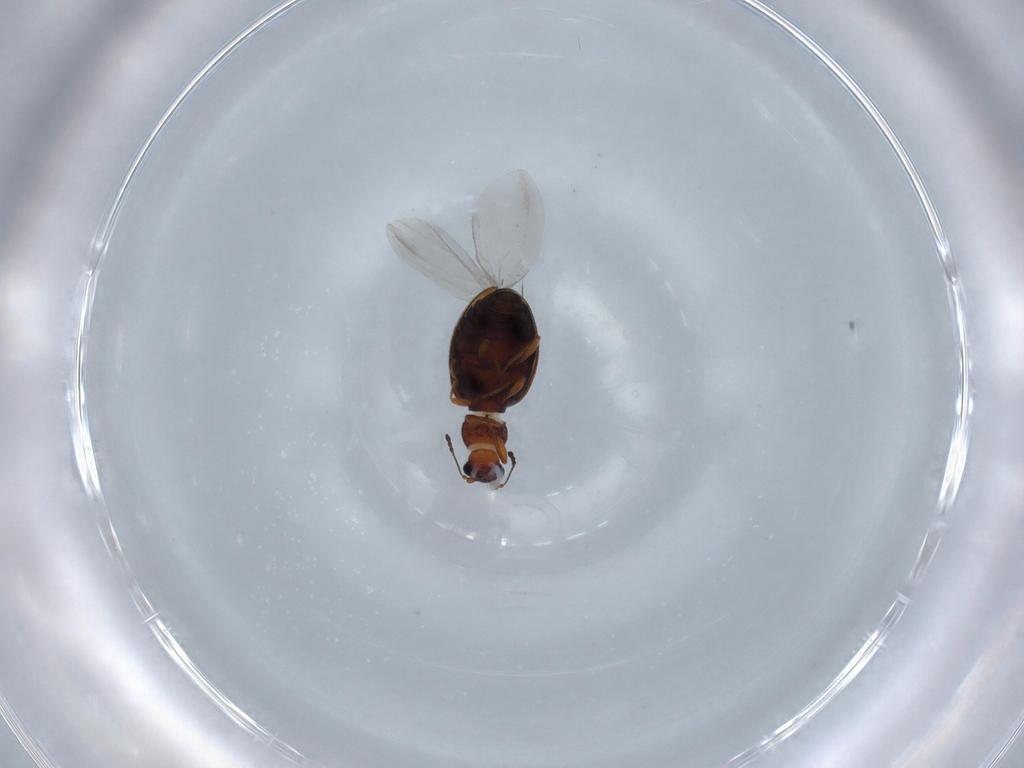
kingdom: Animalia
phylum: Arthropoda
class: Insecta
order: Coleoptera
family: Latridiidae
